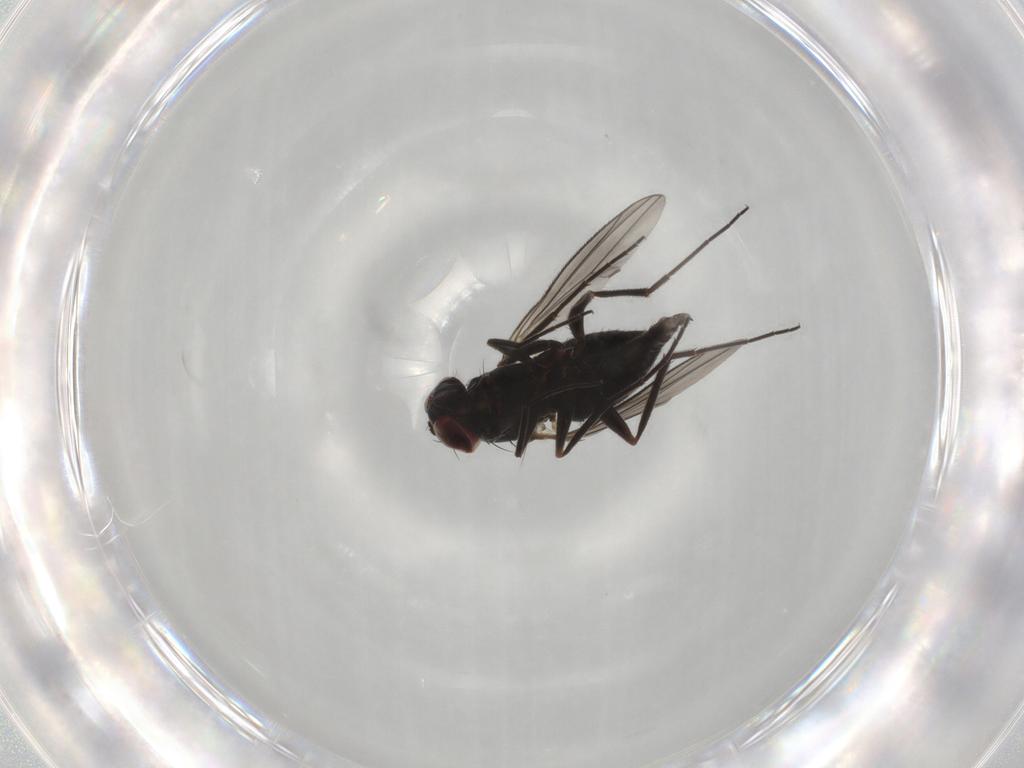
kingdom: Animalia
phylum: Arthropoda
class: Insecta
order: Diptera
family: Dolichopodidae
